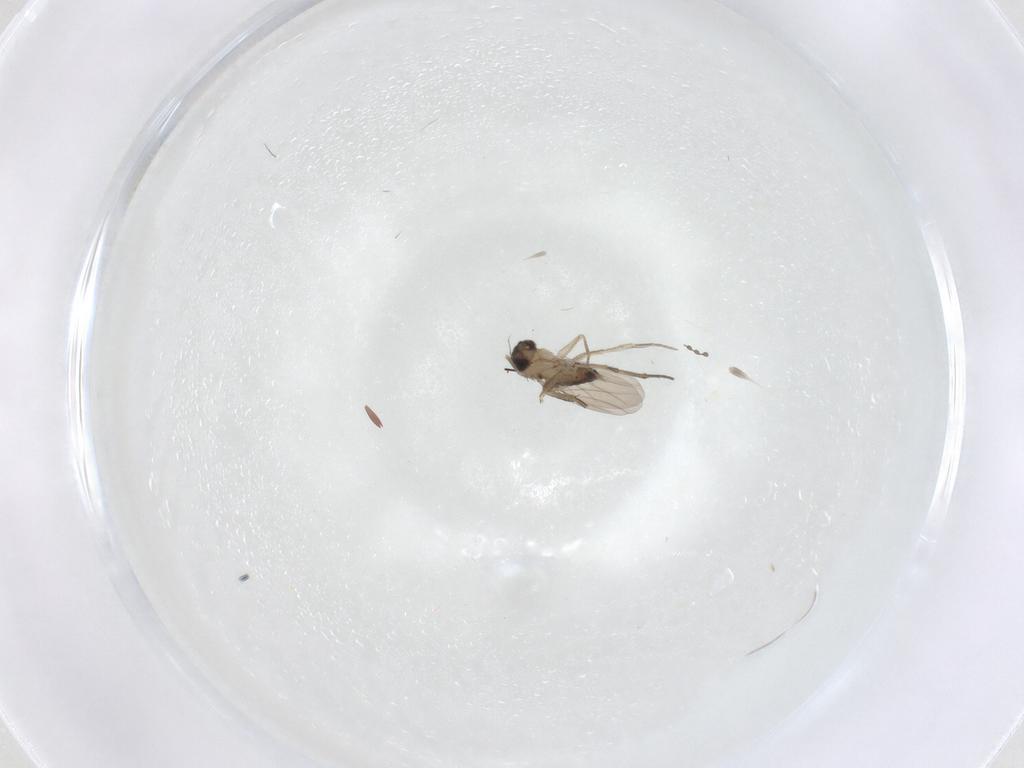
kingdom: Animalia
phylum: Arthropoda
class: Insecta
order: Diptera
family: Phoridae
